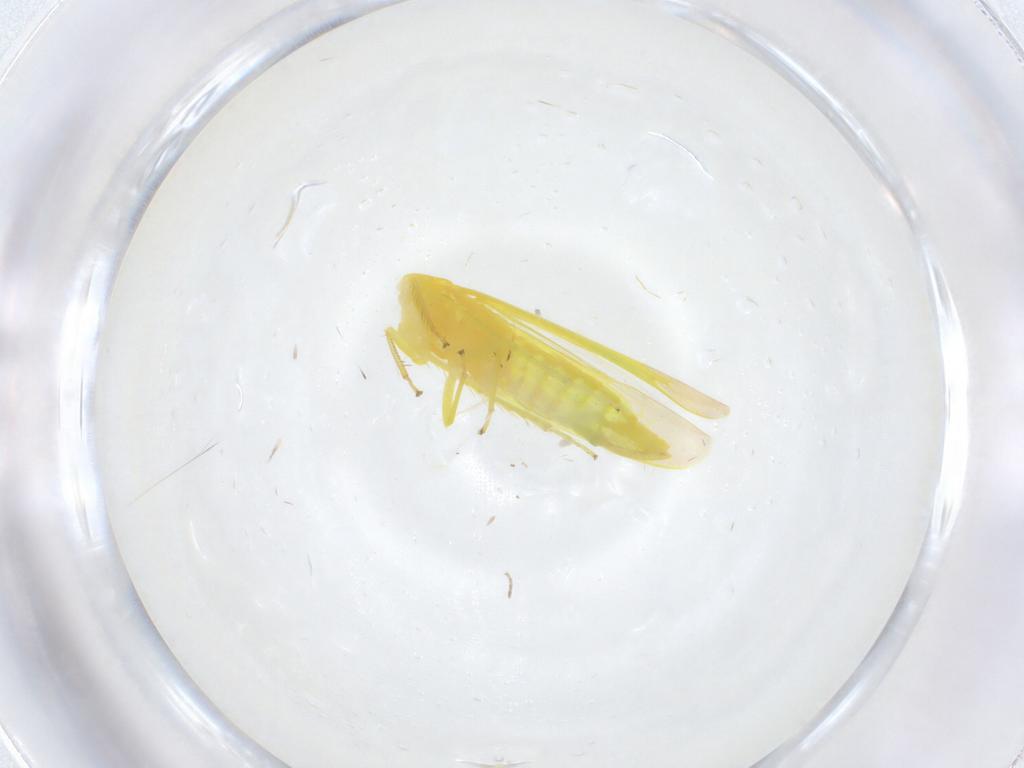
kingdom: Animalia
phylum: Arthropoda
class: Insecta
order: Hemiptera
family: Cicadellidae
